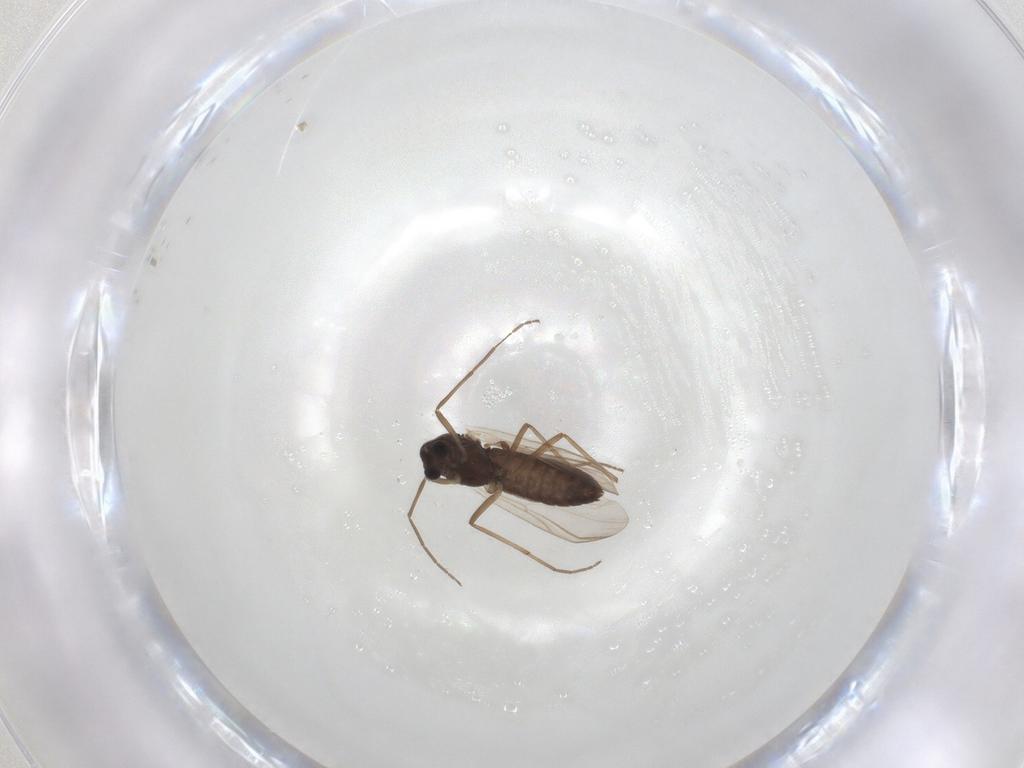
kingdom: Animalia
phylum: Arthropoda
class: Insecta
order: Diptera
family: Chironomidae
